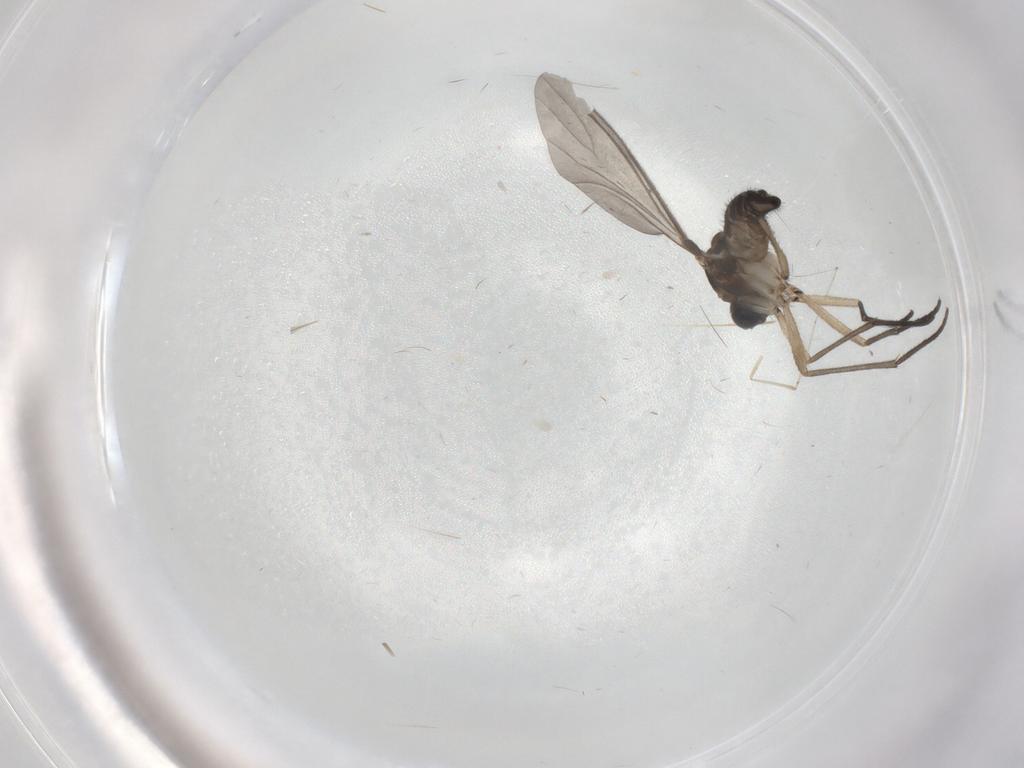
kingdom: Animalia
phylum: Arthropoda
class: Insecta
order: Diptera
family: Sciaridae
